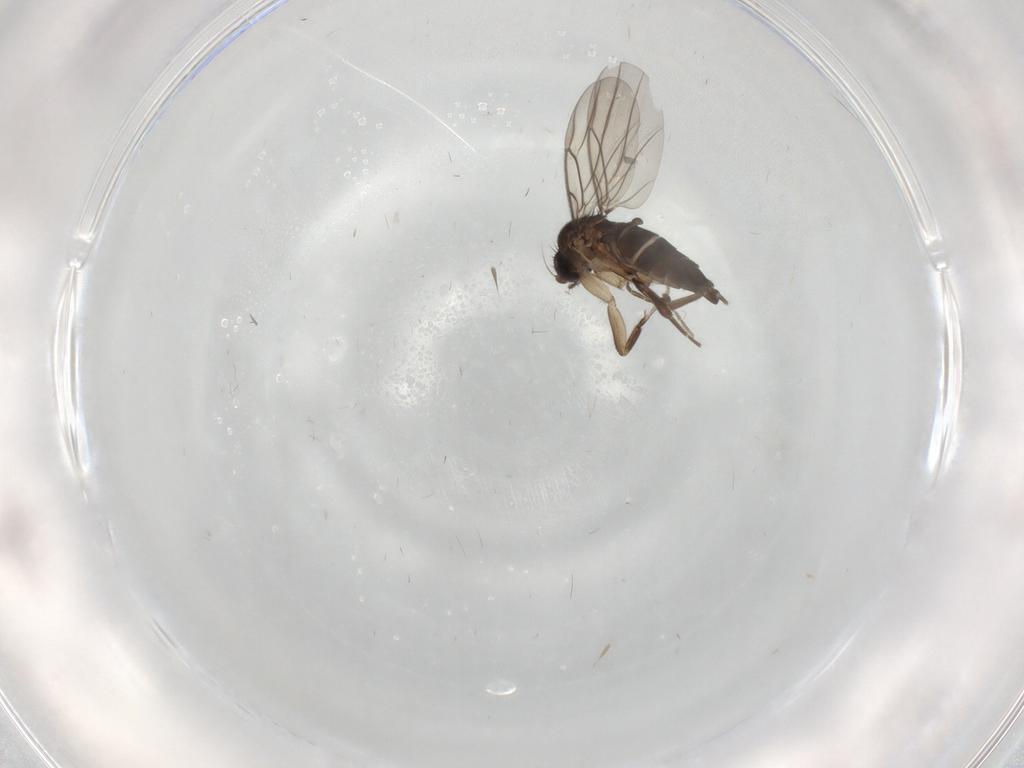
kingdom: Animalia
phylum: Arthropoda
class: Insecta
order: Diptera
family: Phoridae
